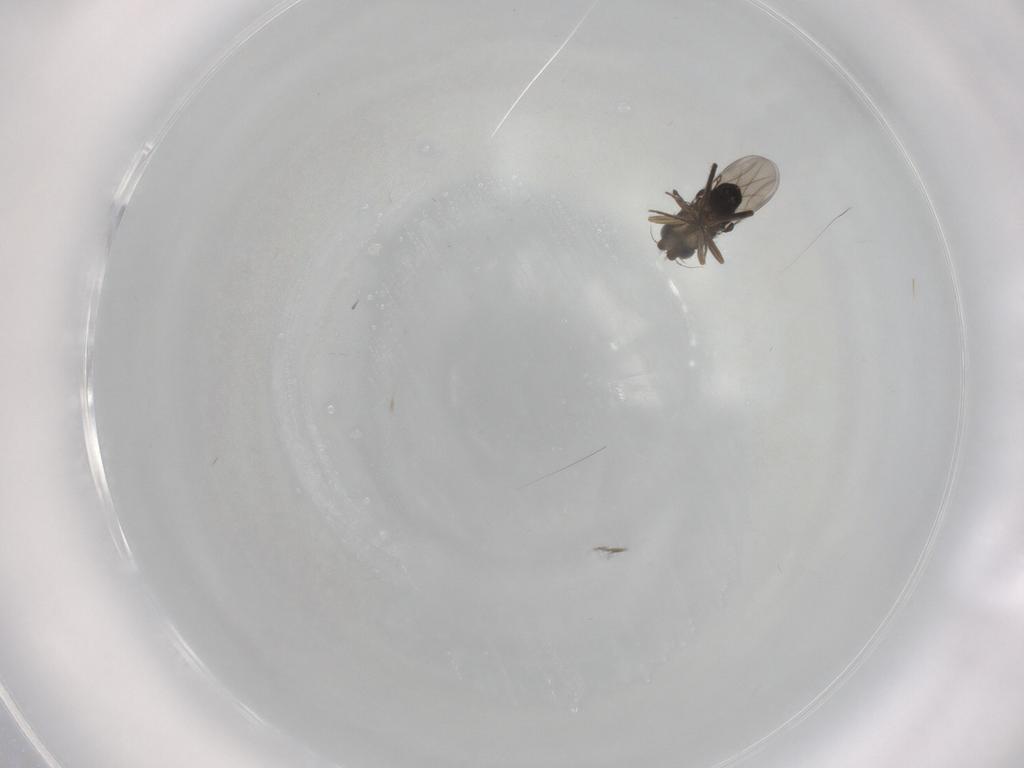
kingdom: Animalia
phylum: Arthropoda
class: Insecta
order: Diptera
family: Phoridae
